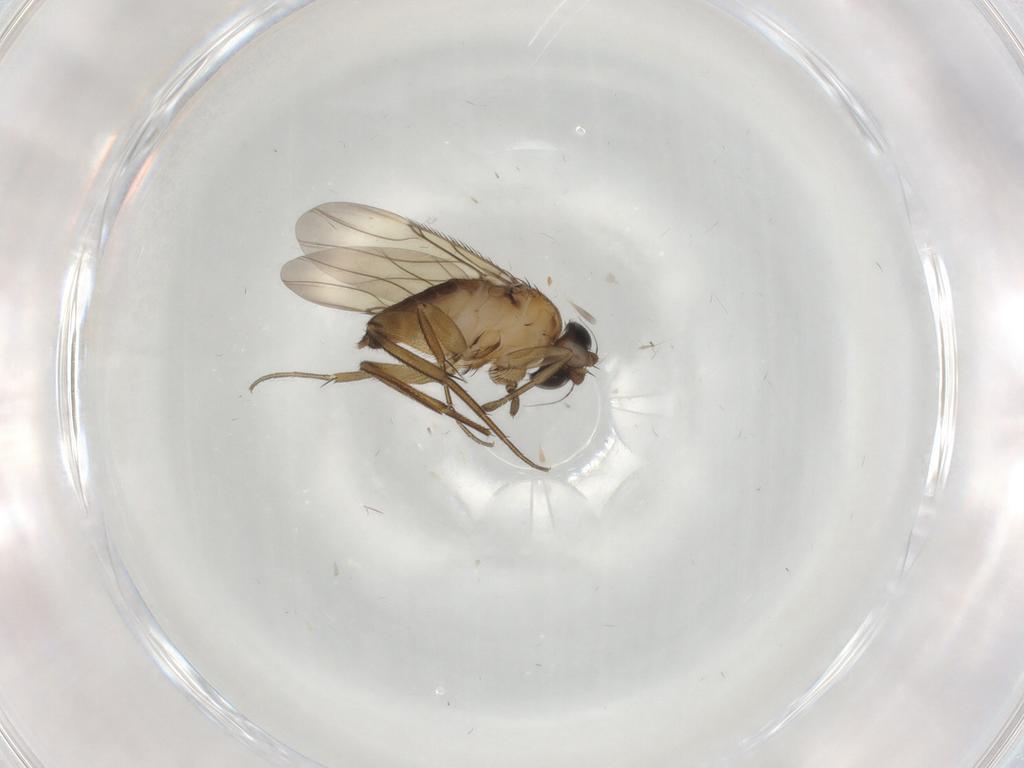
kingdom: Animalia
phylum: Arthropoda
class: Insecta
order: Diptera
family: Phoridae
